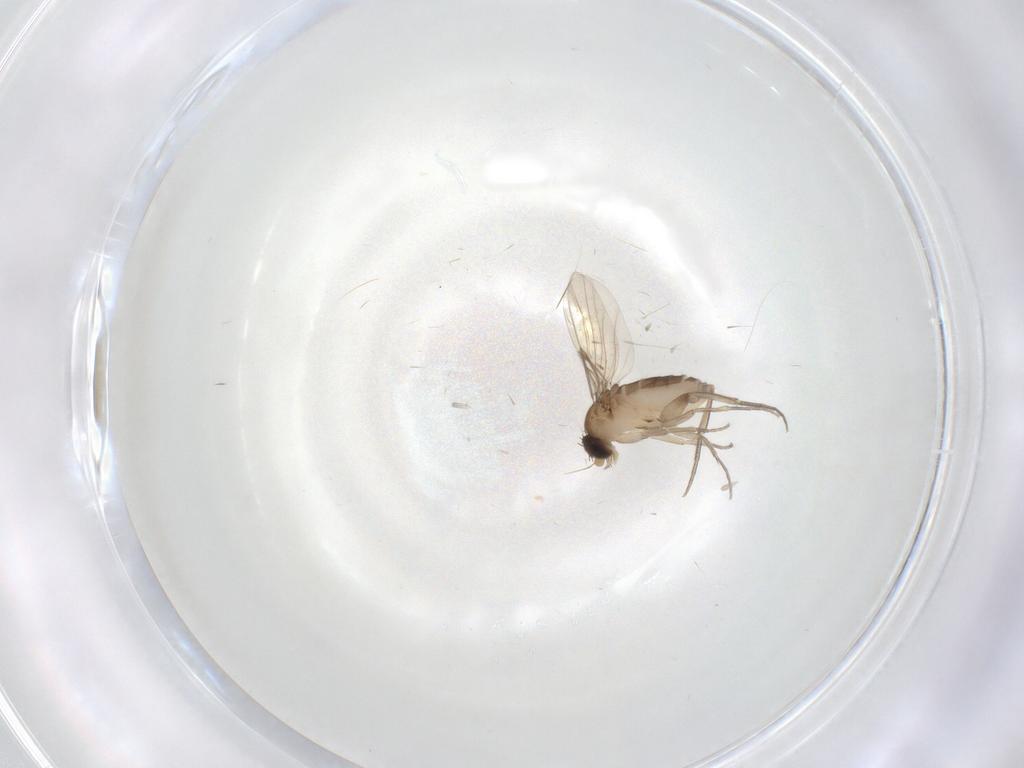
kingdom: Animalia
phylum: Arthropoda
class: Insecta
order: Diptera
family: Phoridae
